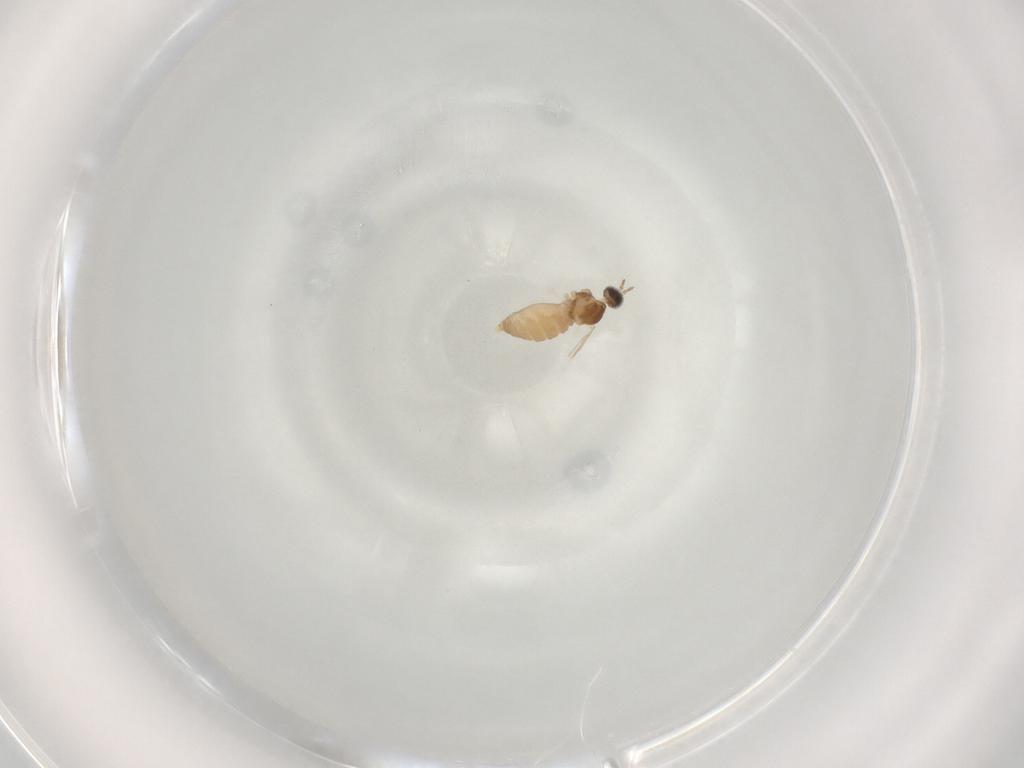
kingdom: Animalia
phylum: Arthropoda
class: Insecta
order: Diptera
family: Cecidomyiidae
